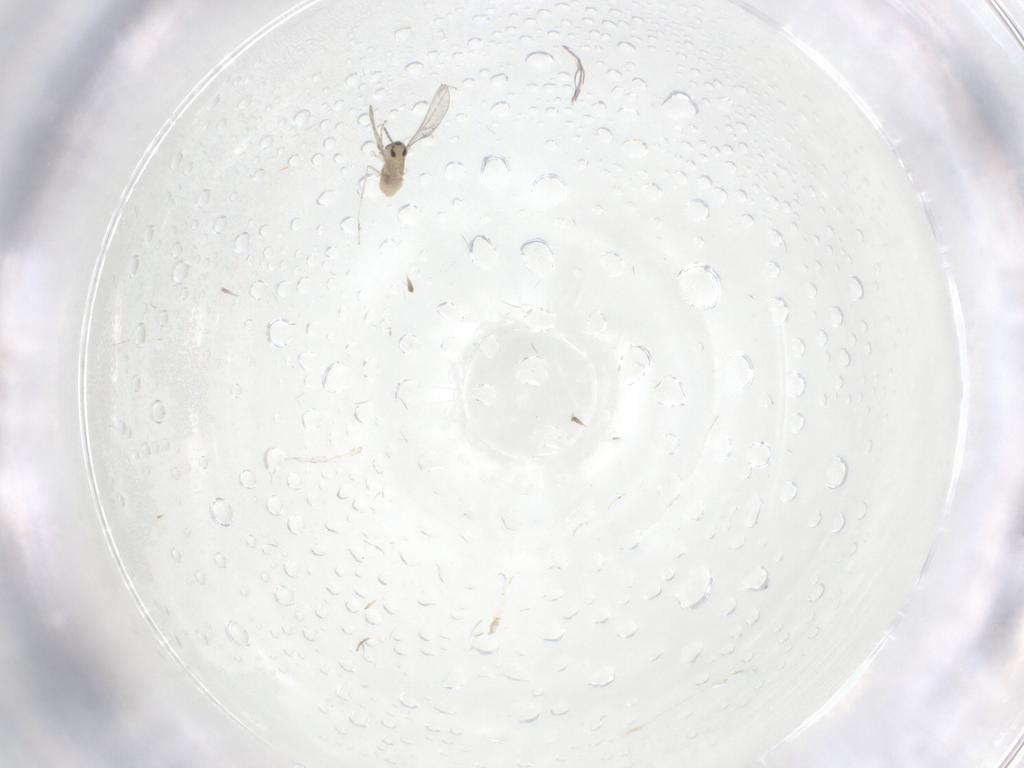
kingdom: Animalia
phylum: Arthropoda
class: Insecta
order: Diptera
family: Cecidomyiidae
